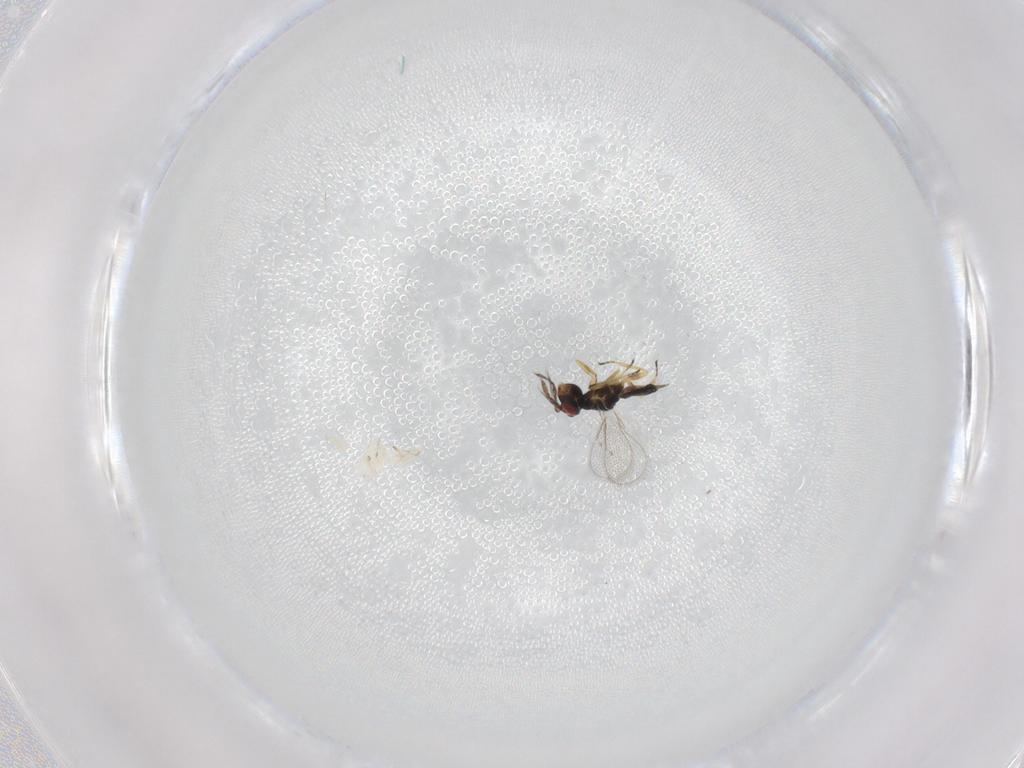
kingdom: Animalia
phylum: Arthropoda
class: Insecta
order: Hymenoptera
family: Eulophidae
